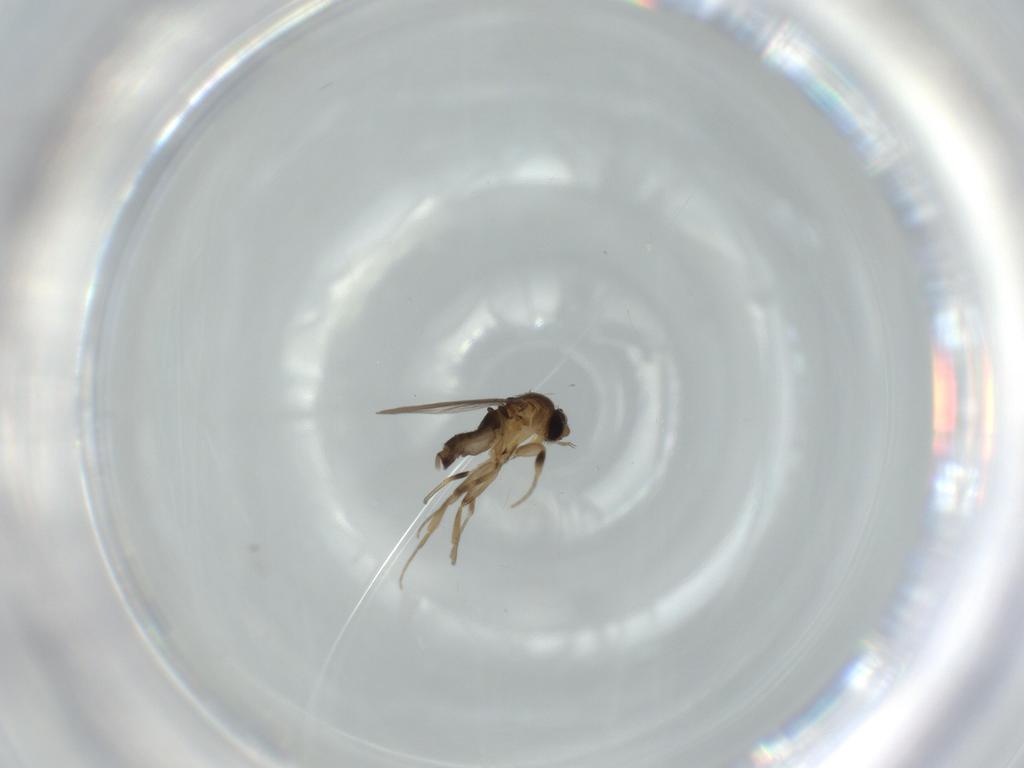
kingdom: Animalia
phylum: Arthropoda
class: Insecta
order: Diptera
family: Phoridae
